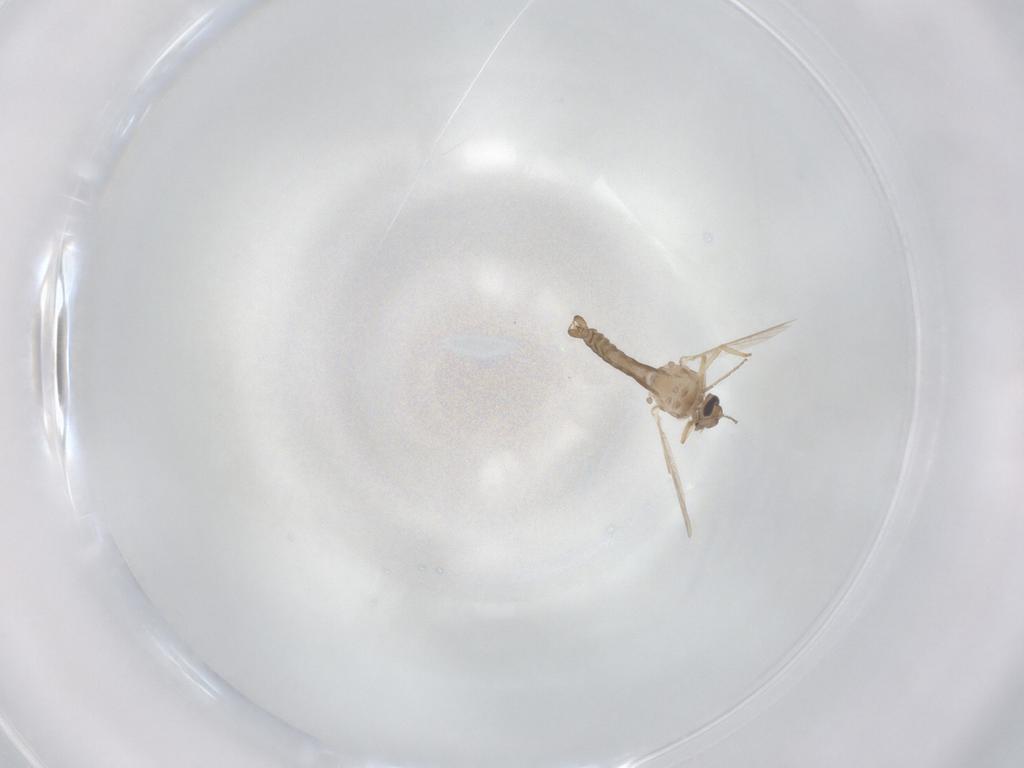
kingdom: Animalia
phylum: Arthropoda
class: Insecta
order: Diptera
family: Ceratopogonidae
